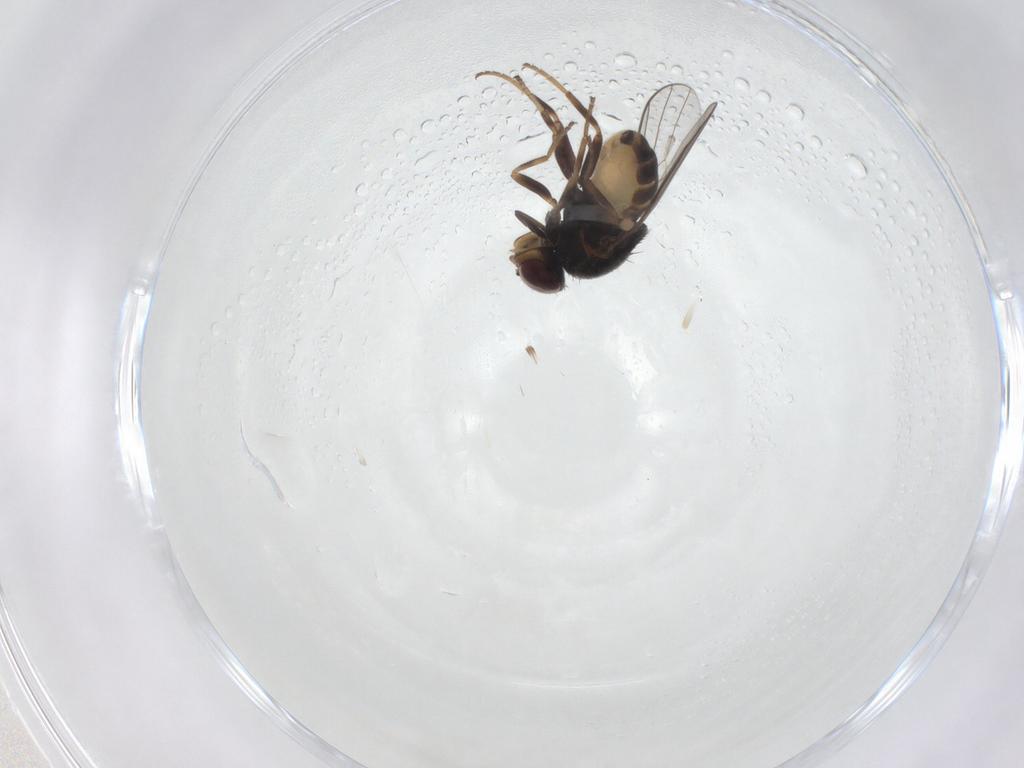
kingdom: Animalia
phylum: Arthropoda
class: Insecta
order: Diptera
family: Chloropidae
